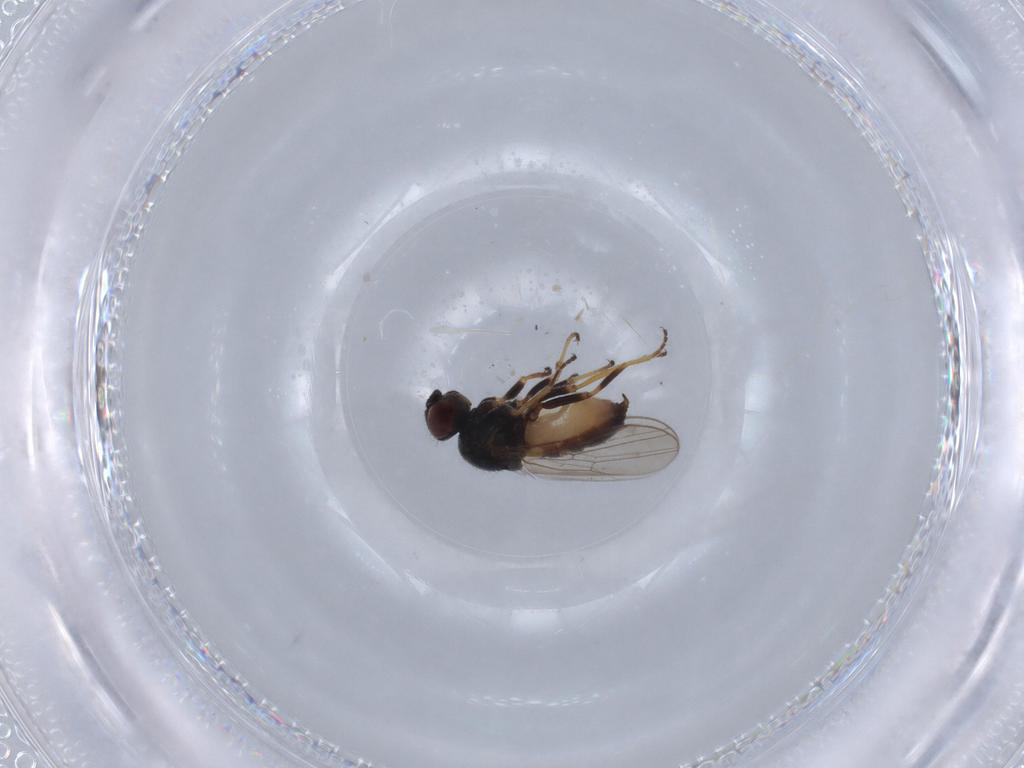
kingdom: Animalia
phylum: Arthropoda
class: Insecta
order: Diptera
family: Chloropidae
